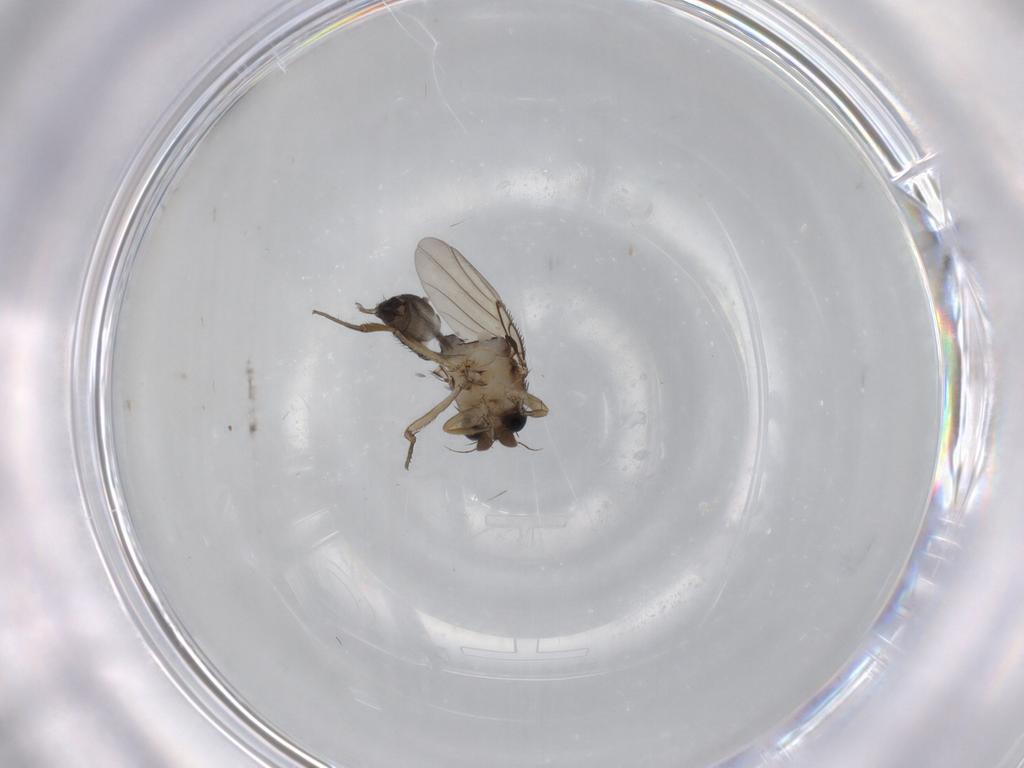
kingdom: Animalia
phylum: Arthropoda
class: Insecta
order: Diptera
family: Phoridae
